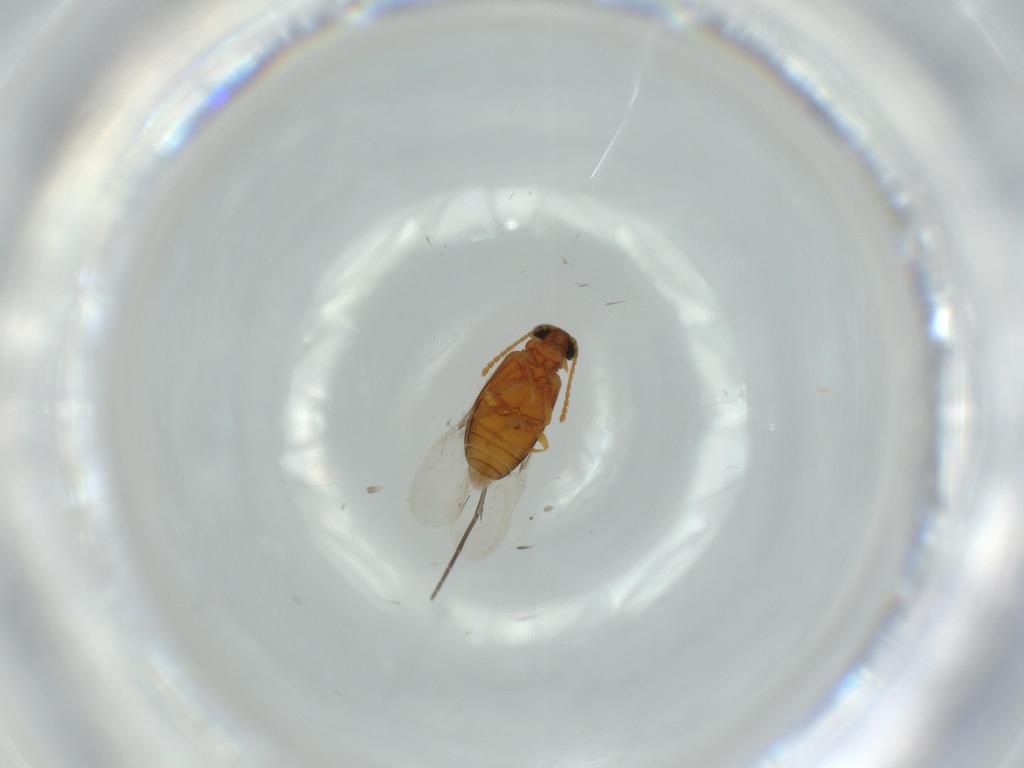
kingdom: Animalia
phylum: Arthropoda
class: Insecta
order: Coleoptera
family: Aderidae
